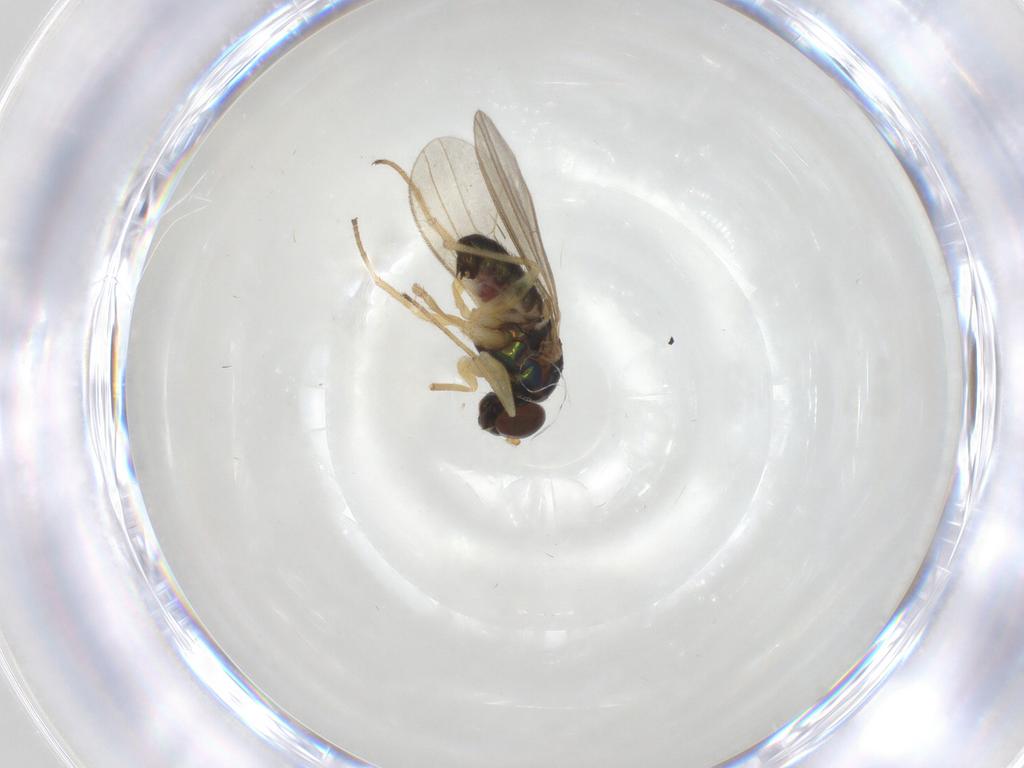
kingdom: Animalia
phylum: Arthropoda
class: Insecta
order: Diptera
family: Dolichopodidae
